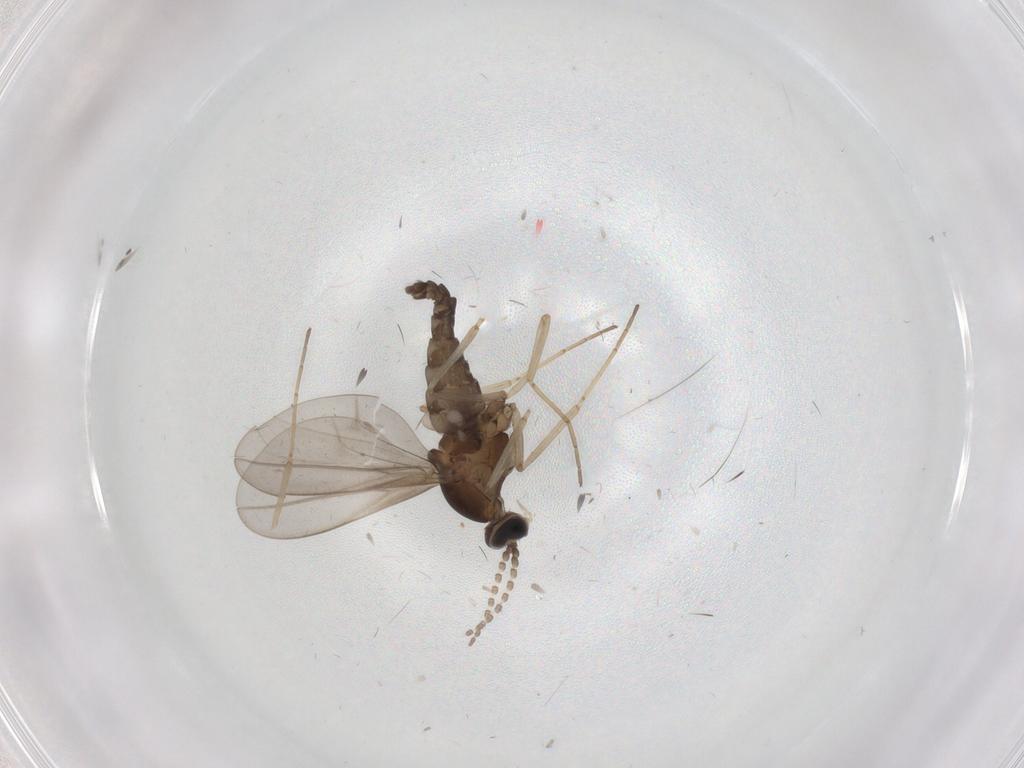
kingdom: Animalia
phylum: Arthropoda
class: Insecta
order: Diptera
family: Chironomidae
